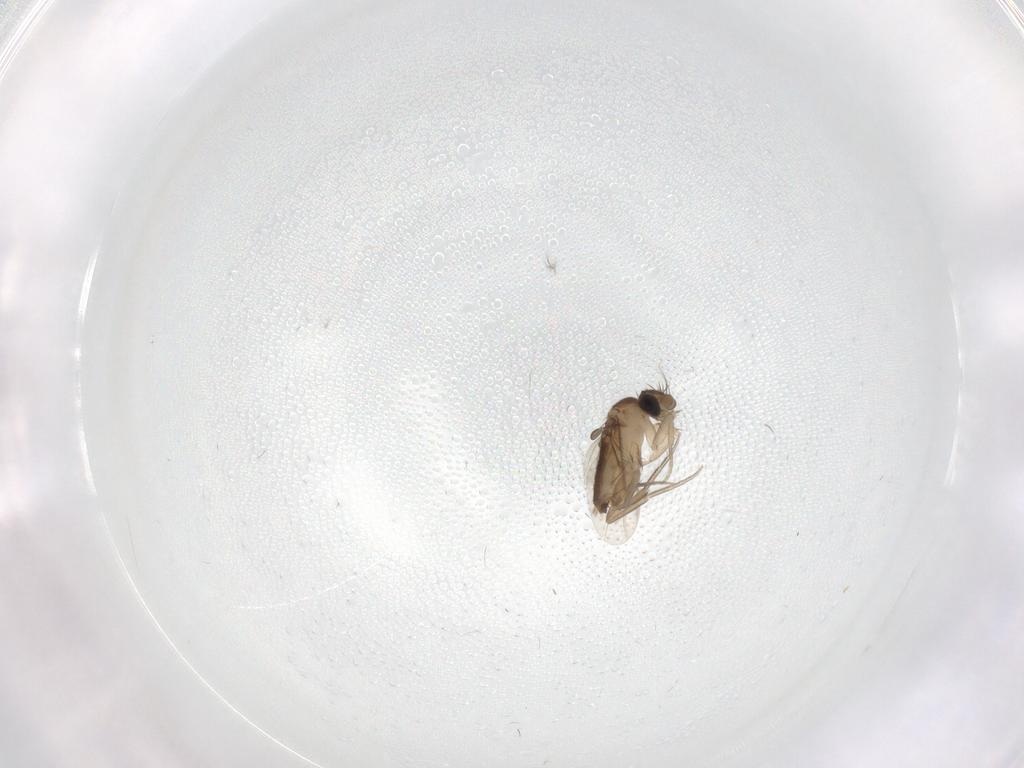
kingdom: Animalia
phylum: Arthropoda
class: Insecta
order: Diptera
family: Phoridae
